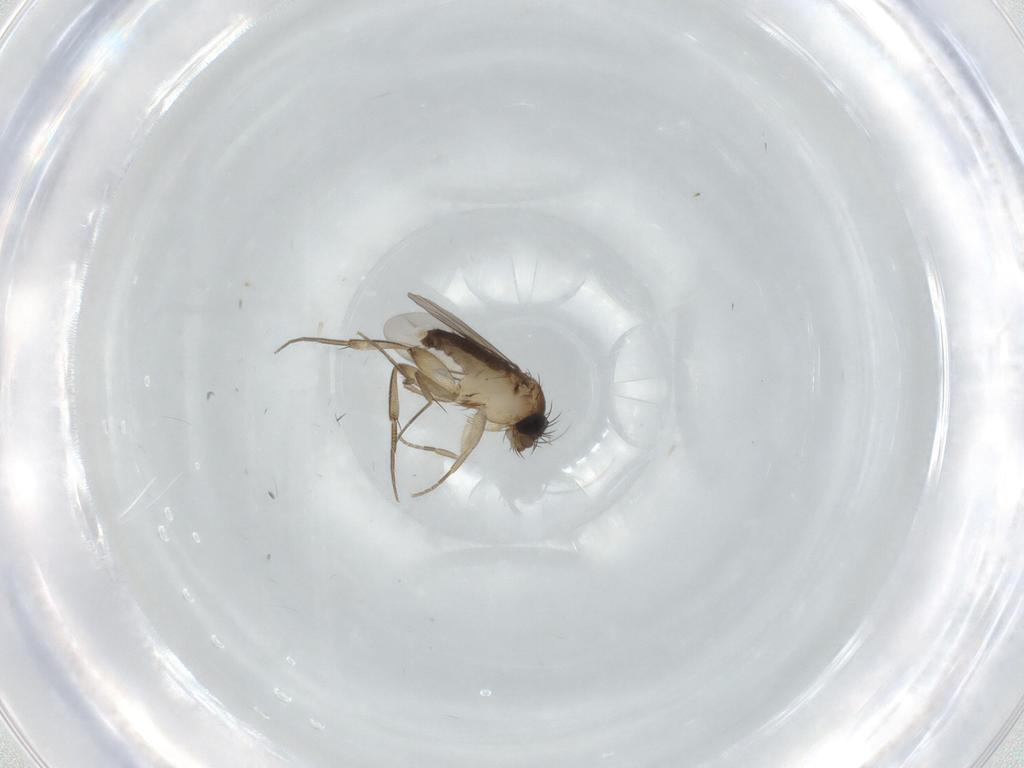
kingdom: Animalia
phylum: Arthropoda
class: Insecta
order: Diptera
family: Phoridae
